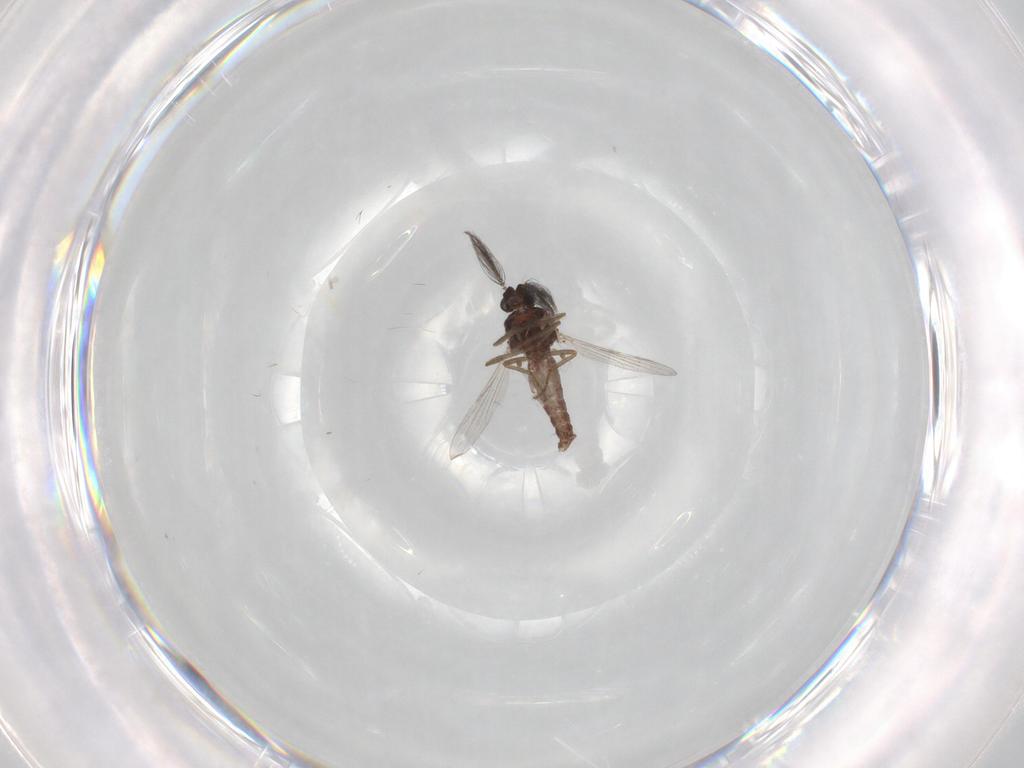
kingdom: Animalia
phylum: Arthropoda
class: Insecta
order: Diptera
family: Ceratopogonidae
